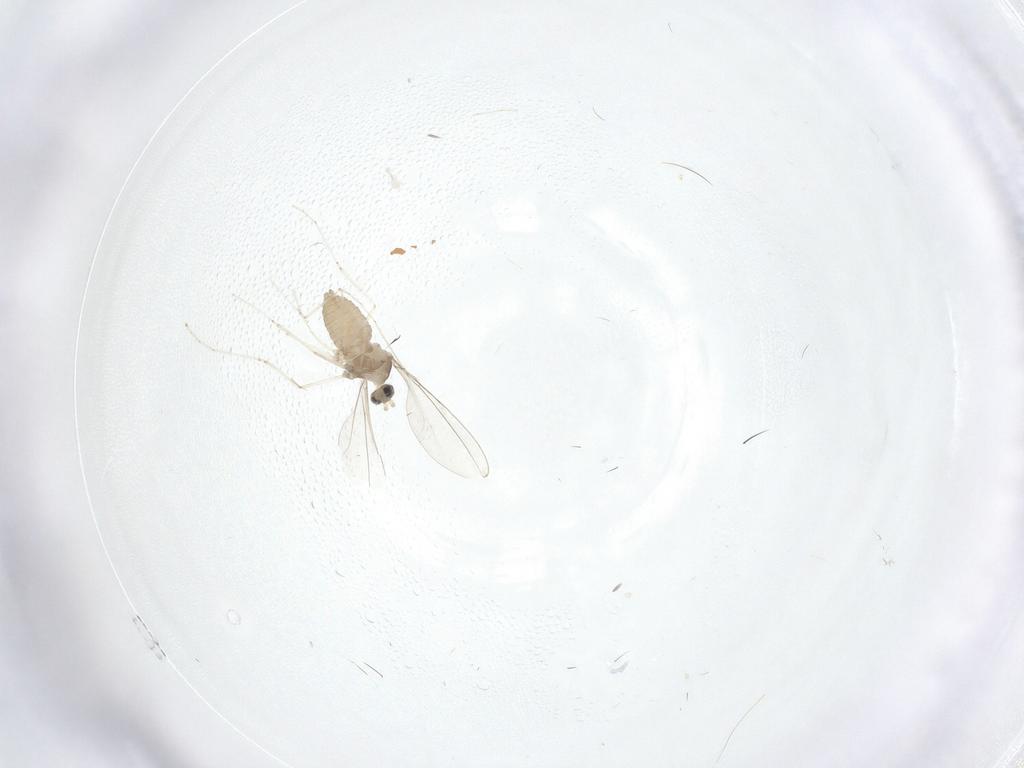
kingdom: Animalia
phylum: Arthropoda
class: Insecta
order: Diptera
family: Cecidomyiidae
